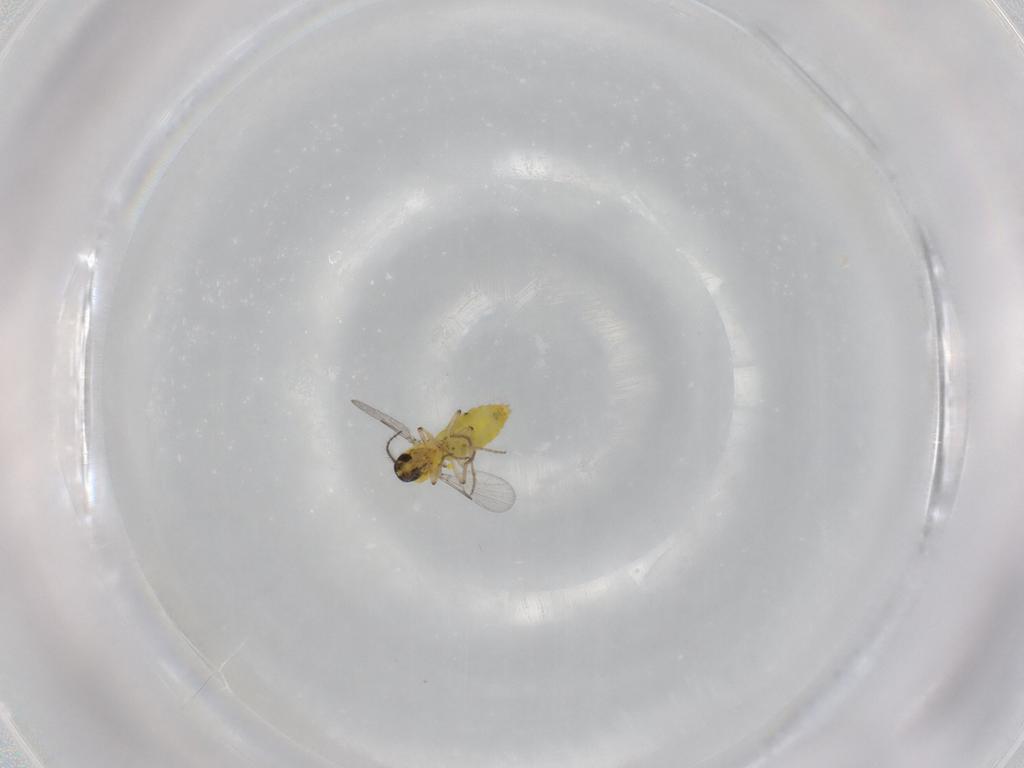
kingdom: Animalia
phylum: Arthropoda
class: Insecta
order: Diptera
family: Ceratopogonidae
